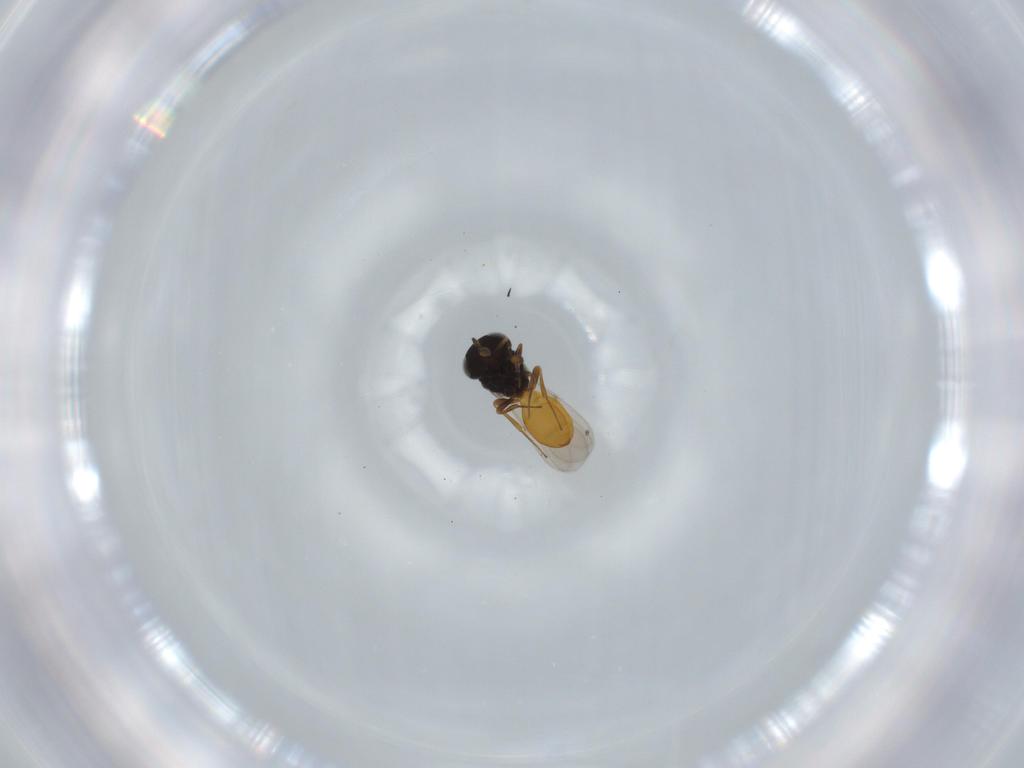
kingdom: Animalia
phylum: Arthropoda
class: Insecta
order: Hymenoptera
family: Scelionidae
